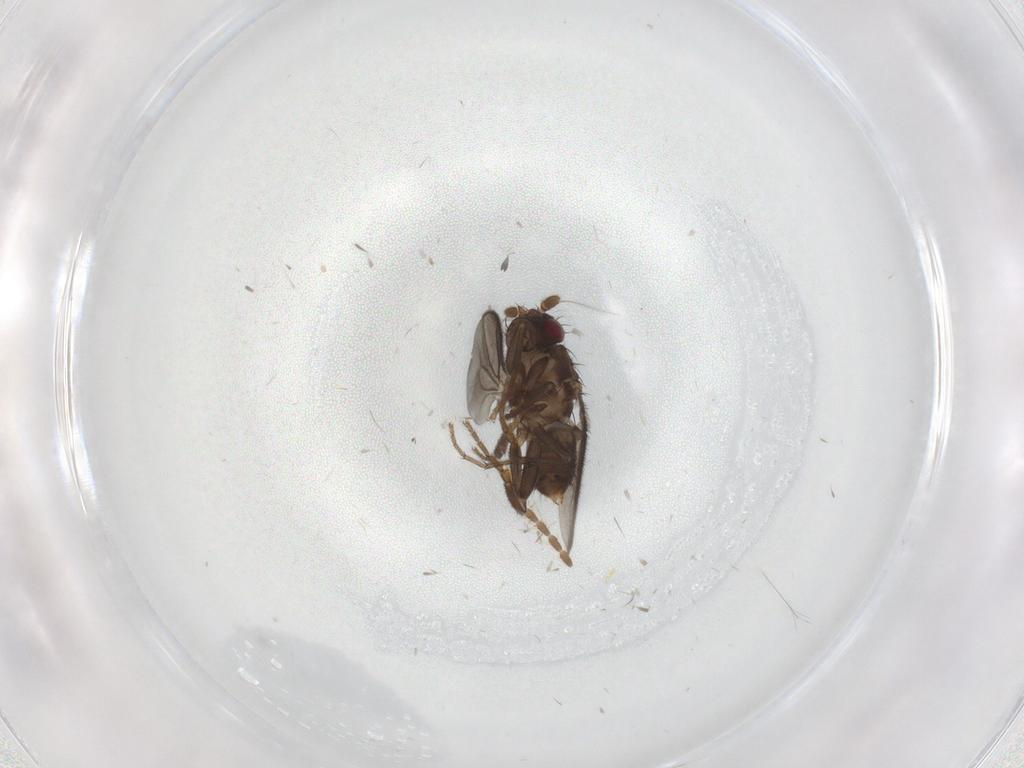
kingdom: Animalia
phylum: Arthropoda
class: Insecta
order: Diptera
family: Sphaeroceridae
